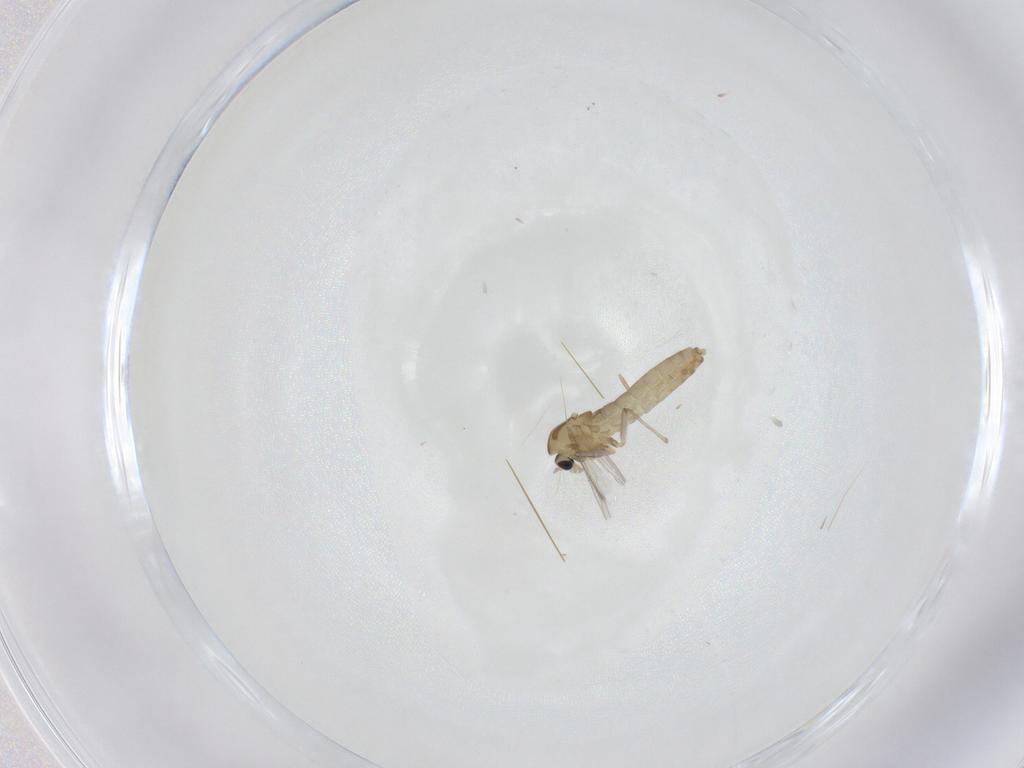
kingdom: Animalia
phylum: Arthropoda
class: Insecta
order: Diptera
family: Chironomidae
